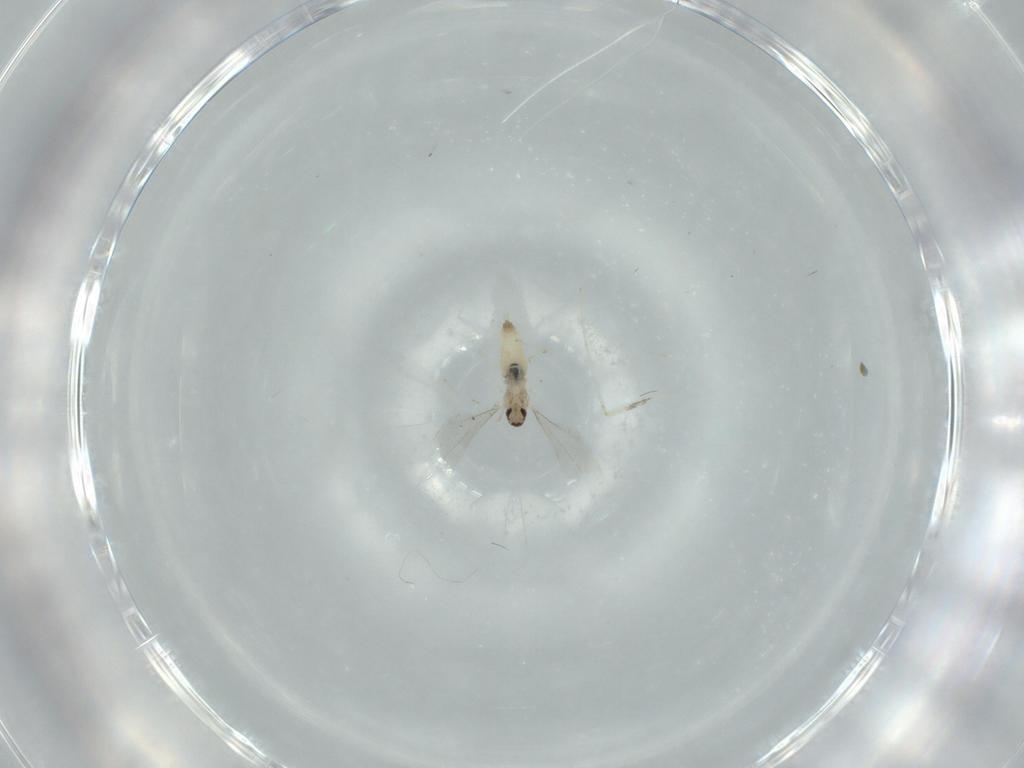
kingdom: Animalia
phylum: Arthropoda
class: Insecta
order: Diptera
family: Cecidomyiidae
